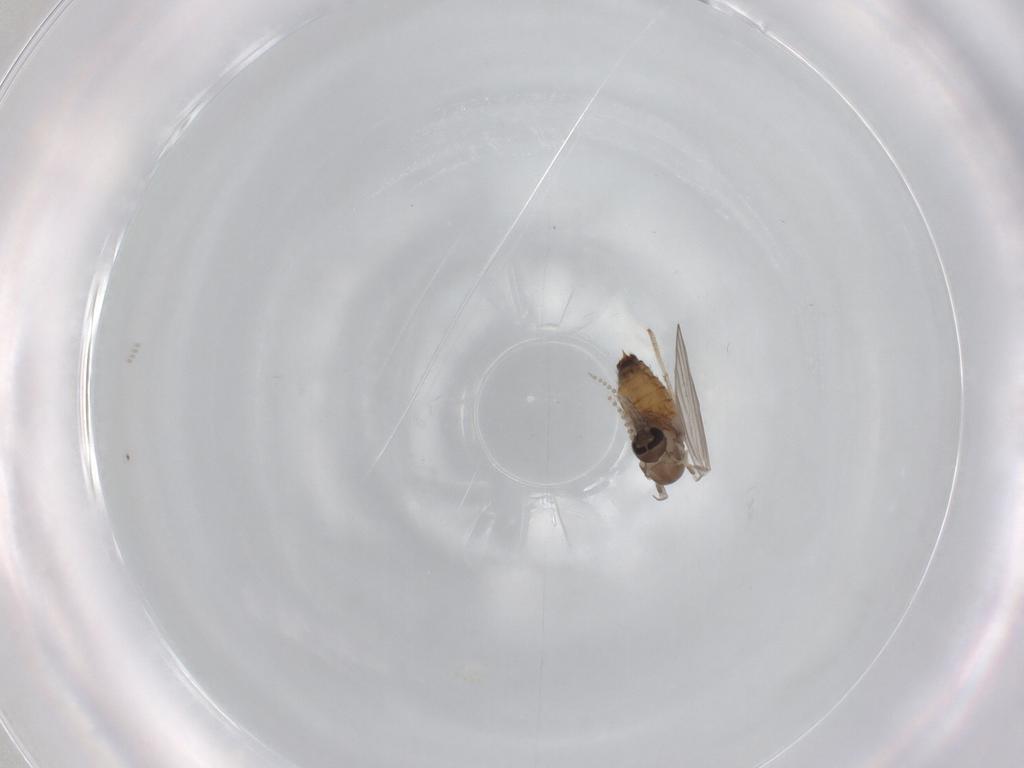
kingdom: Animalia
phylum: Arthropoda
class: Insecta
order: Diptera
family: Psychodidae
